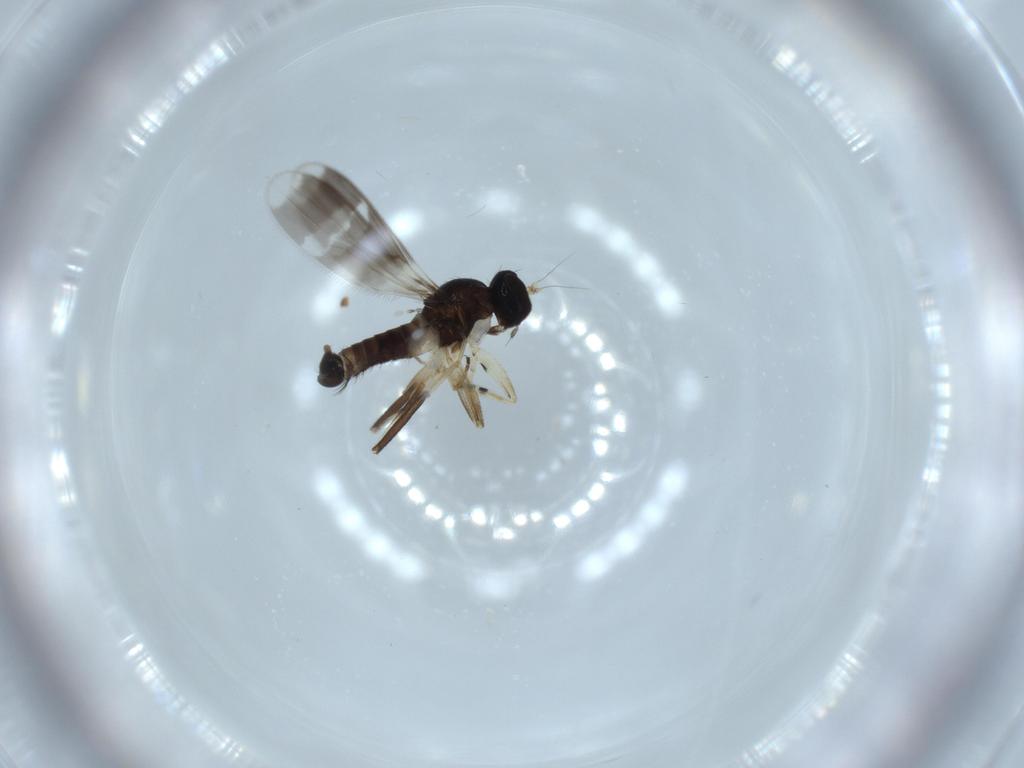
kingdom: Animalia
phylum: Arthropoda
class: Insecta
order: Diptera
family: Hybotidae
